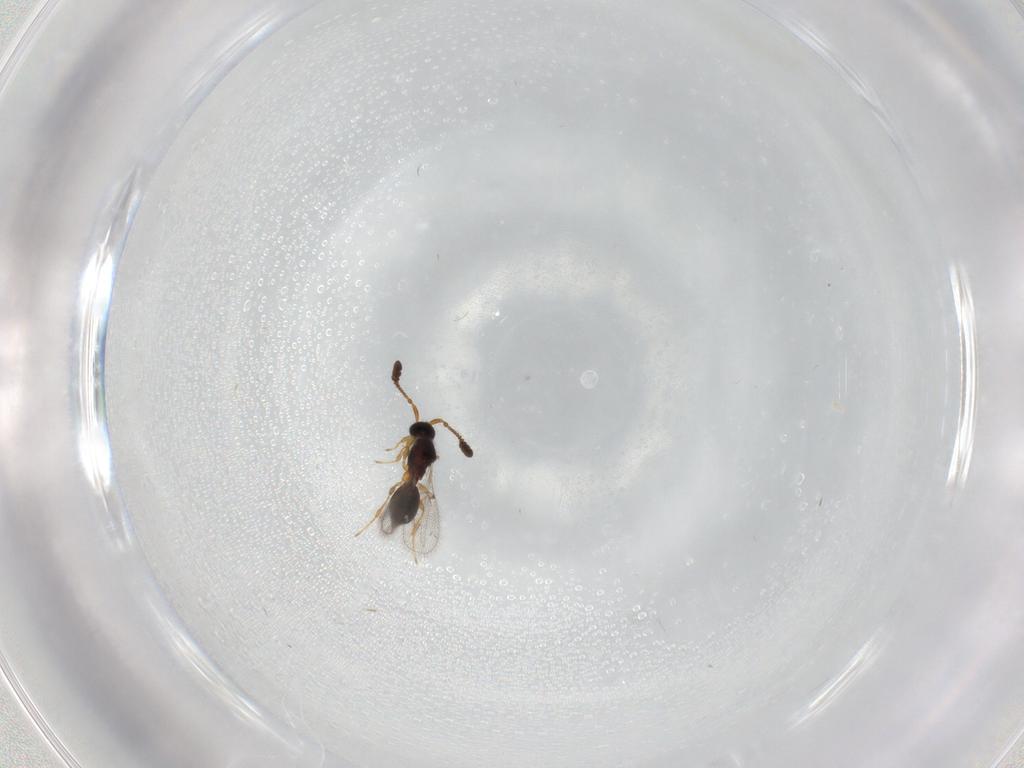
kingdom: Animalia
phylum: Arthropoda
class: Insecta
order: Hymenoptera
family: Diapriidae
